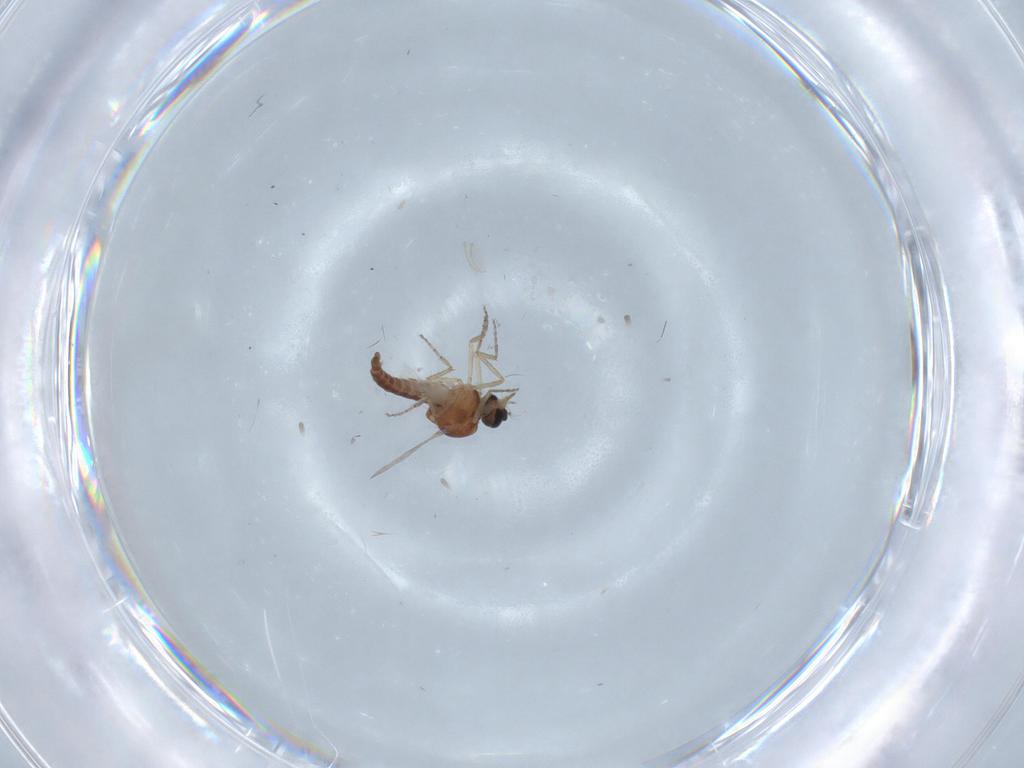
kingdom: Animalia
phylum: Arthropoda
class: Insecta
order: Diptera
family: Ceratopogonidae
